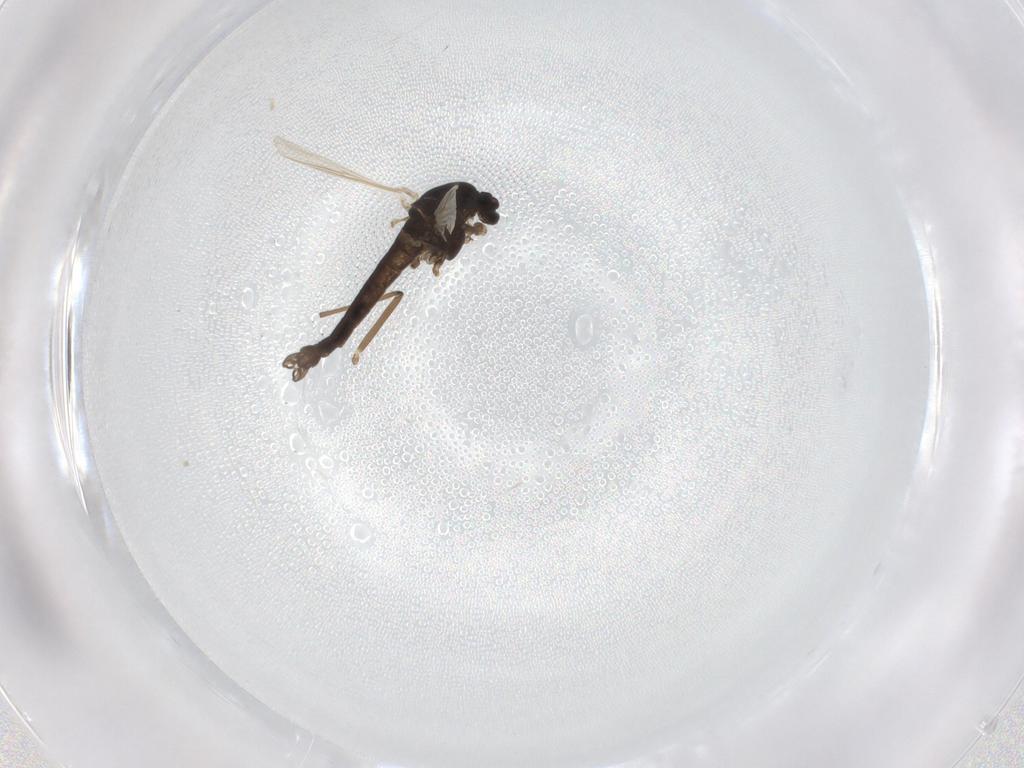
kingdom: Animalia
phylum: Arthropoda
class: Insecta
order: Diptera
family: Chironomidae
